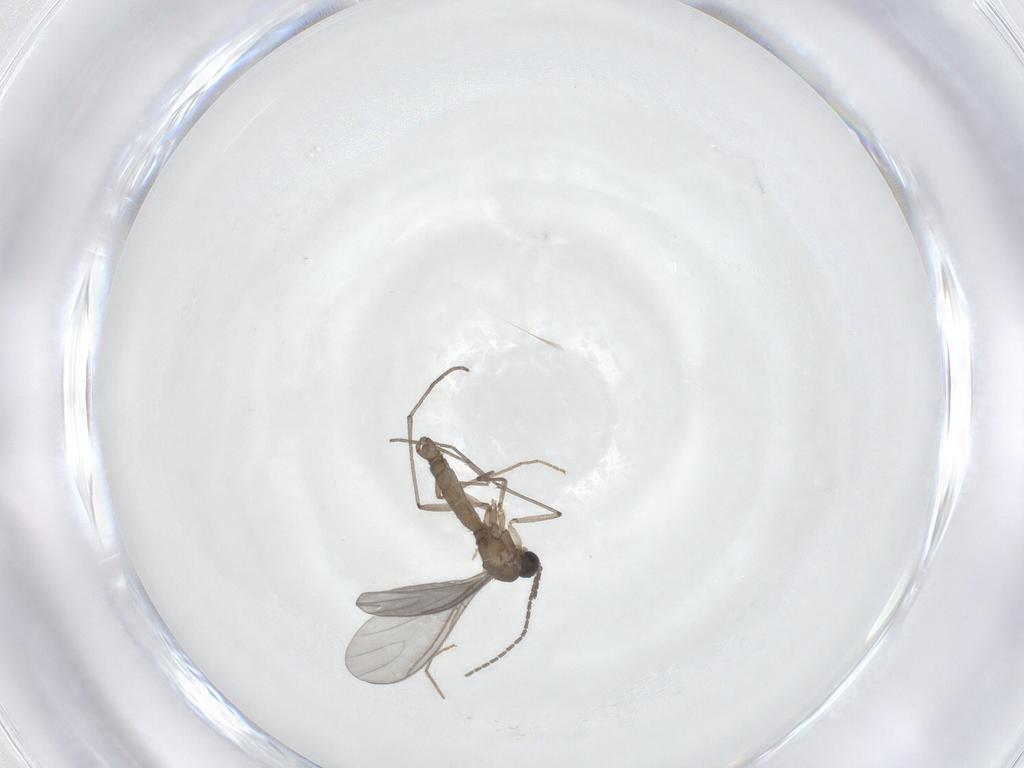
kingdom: Animalia
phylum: Arthropoda
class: Insecta
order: Diptera
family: Sciaridae
